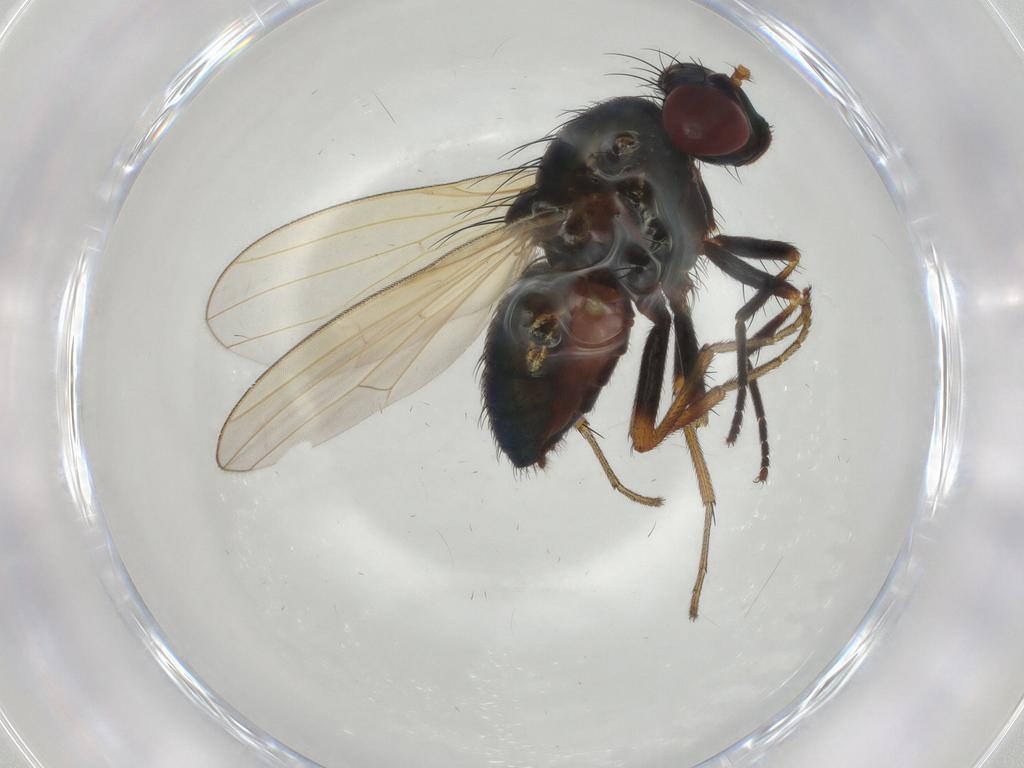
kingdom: Animalia
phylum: Arthropoda
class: Insecta
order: Diptera
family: Lauxaniidae
